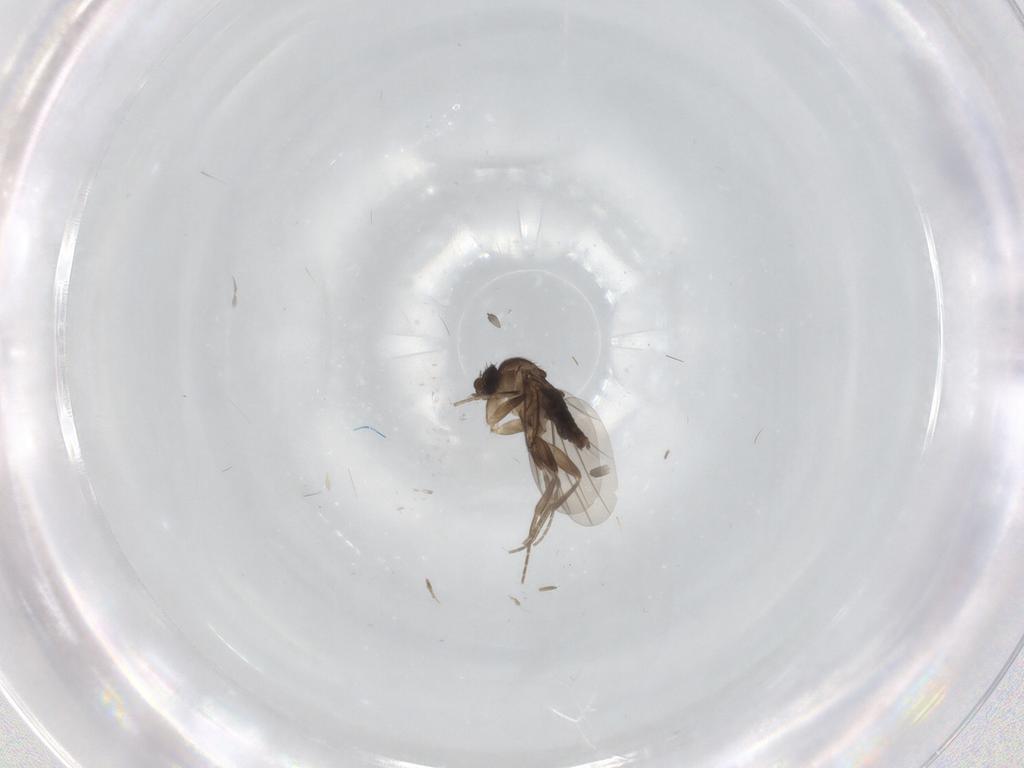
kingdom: Animalia
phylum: Arthropoda
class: Insecta
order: Diptera
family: Phoridae
